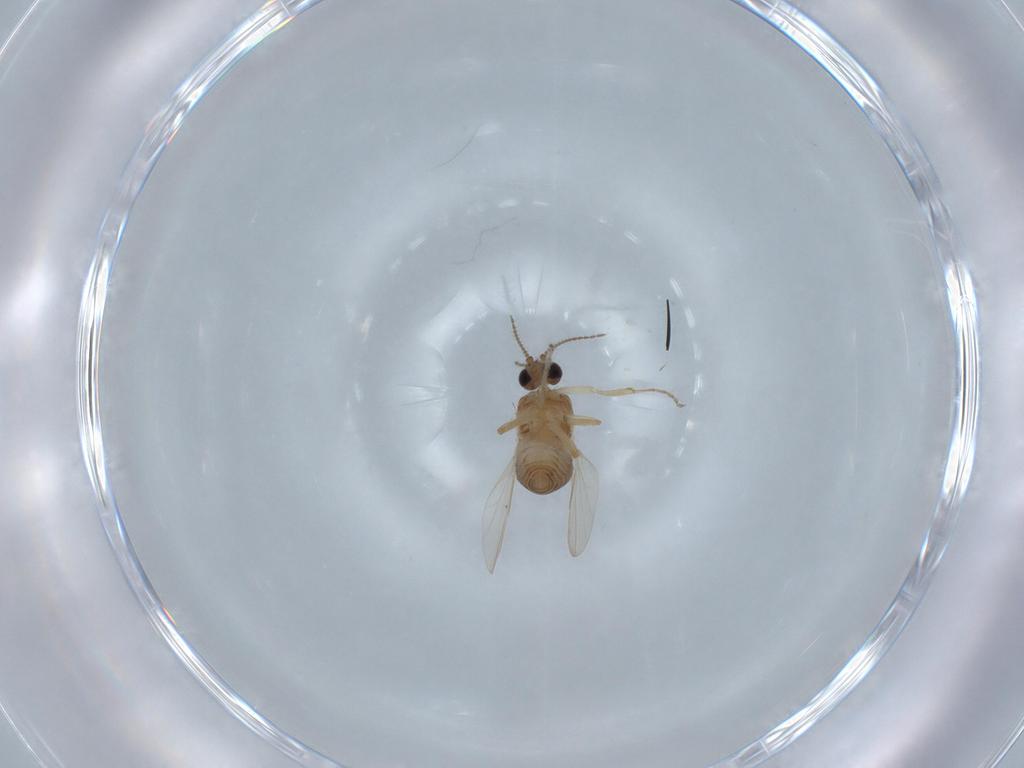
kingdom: Animalia
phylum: Arthropoda
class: Insecta
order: Diptera
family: Ceratopogonidae
